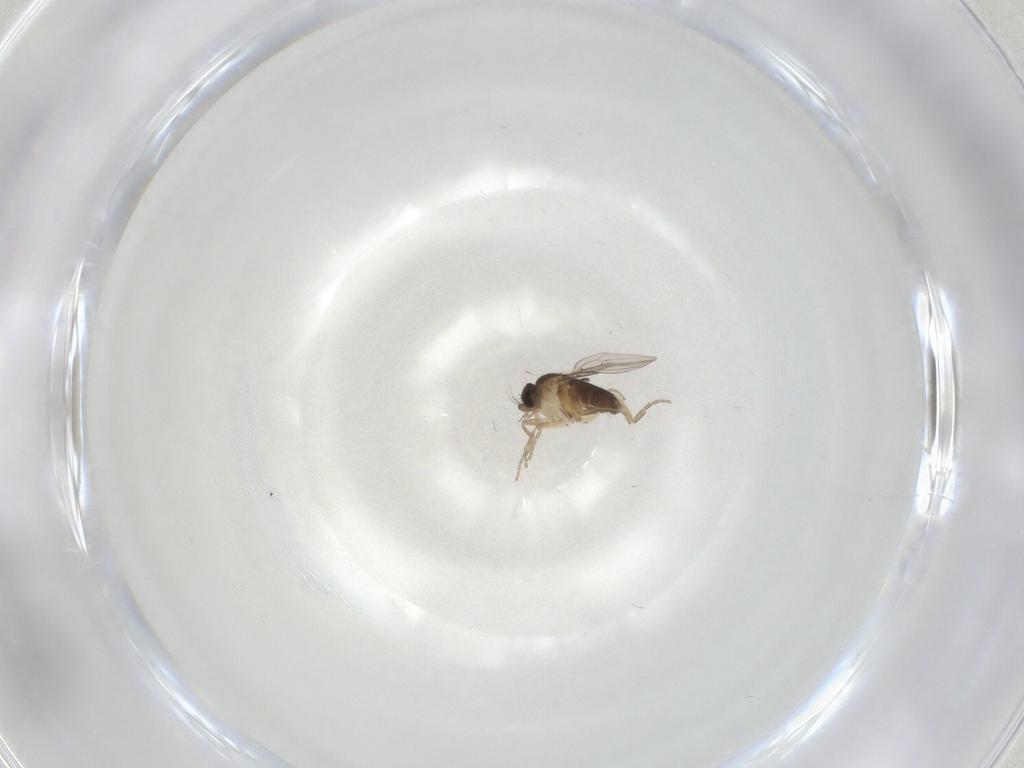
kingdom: Animalia
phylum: Arthropoda
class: Insecta
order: Diptera
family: Phoridae
